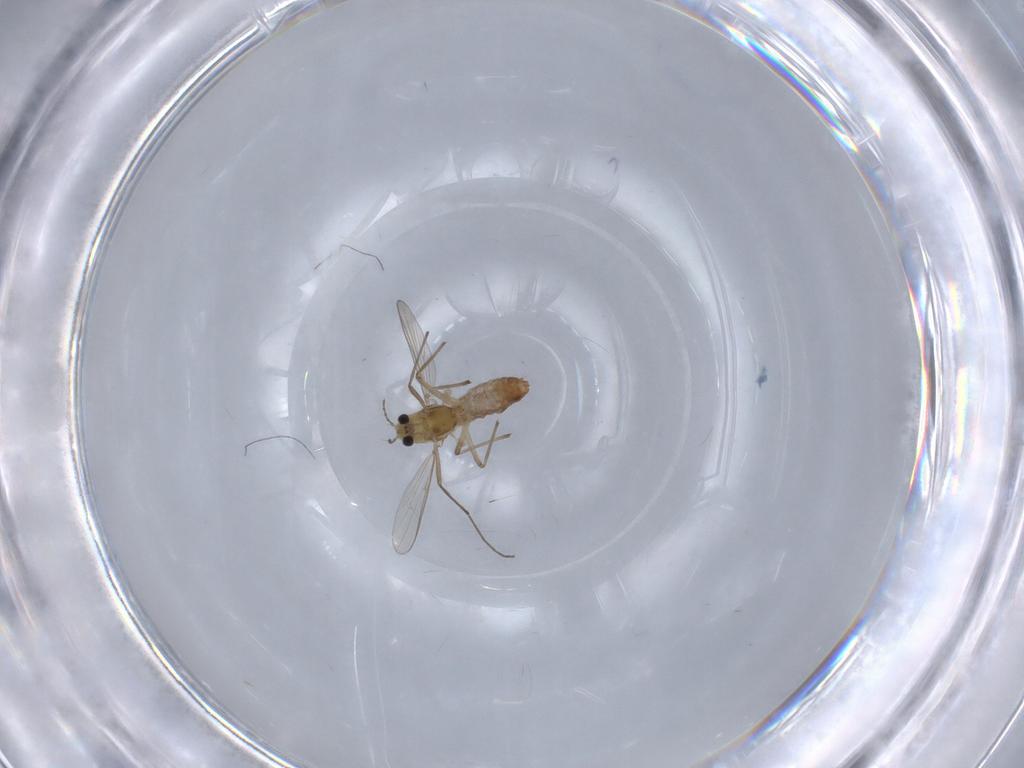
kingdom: Animalia
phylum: Arthropoda
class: Insecta
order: Diptera
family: Chironomidae
